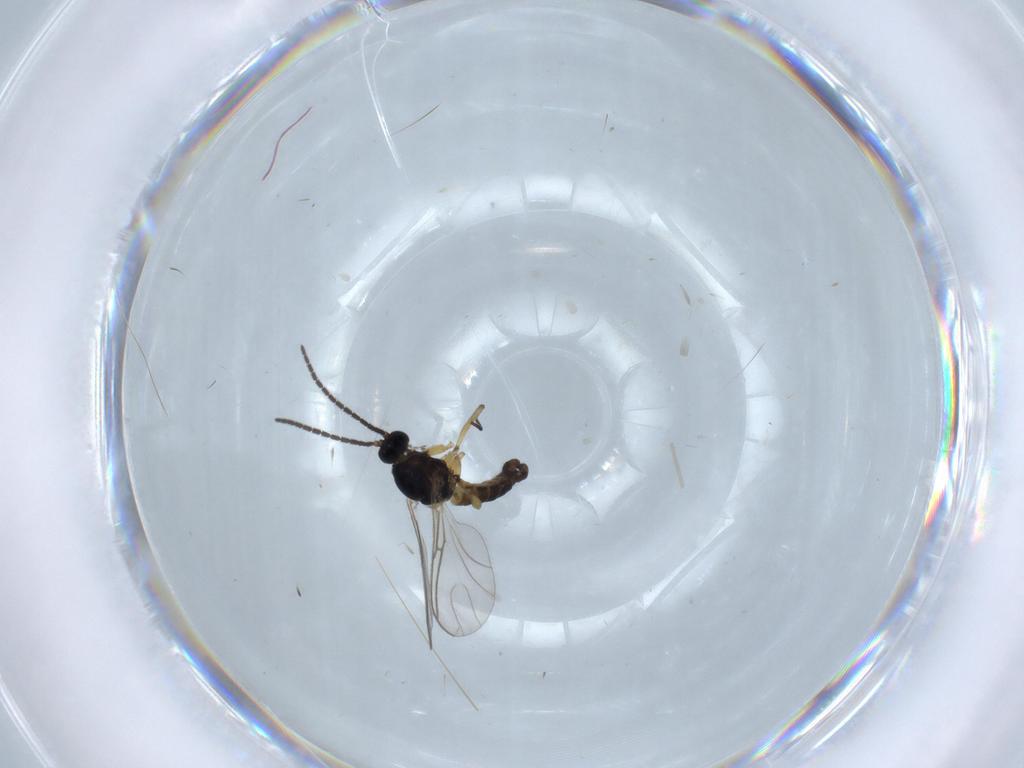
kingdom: Animalia
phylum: Arthropoda
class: Insecta
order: Diptera
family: Sciaridae
